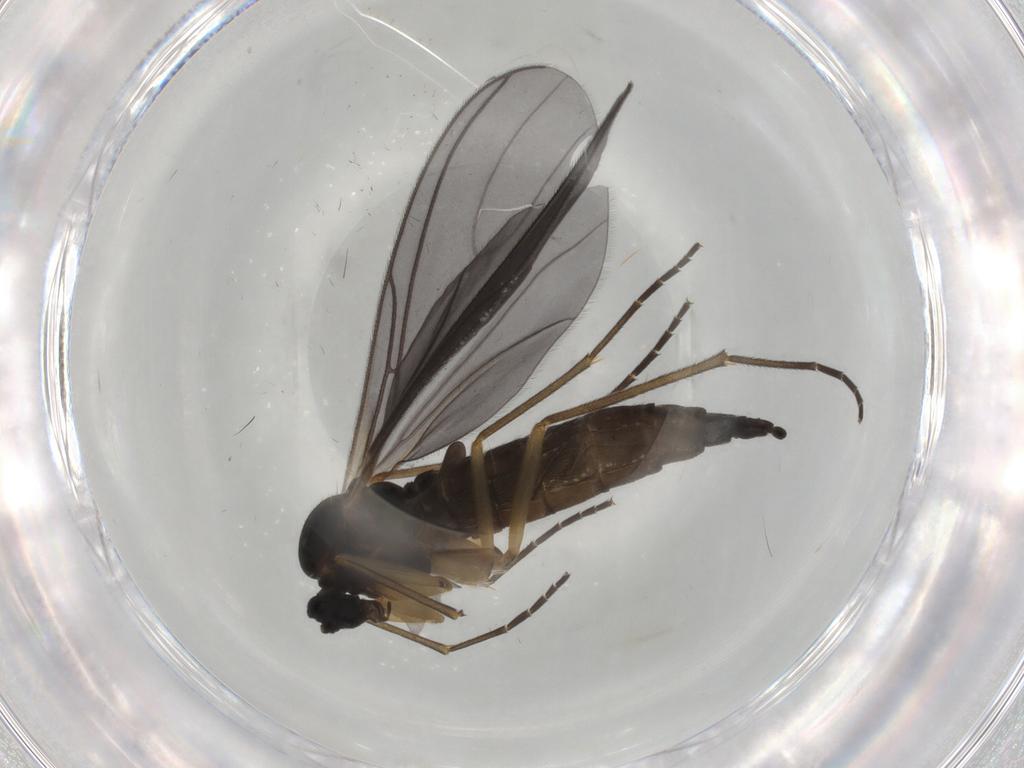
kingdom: Animalia
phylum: Arthropoda
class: Insecta
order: Diptera
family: Sciaridae
